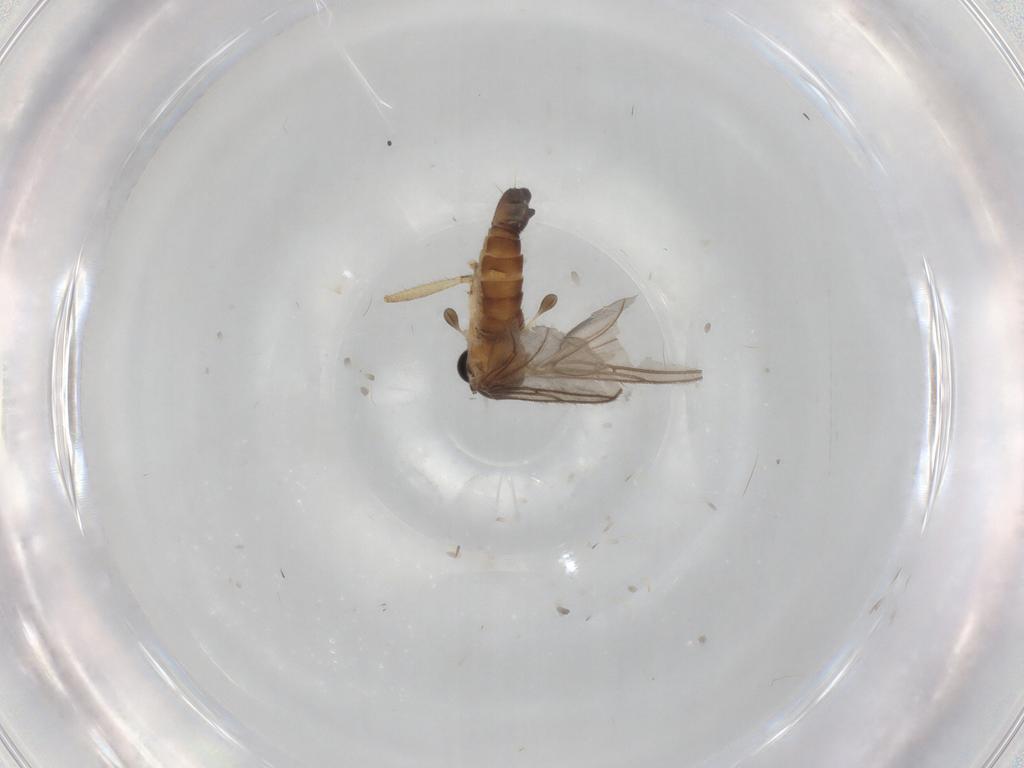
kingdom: Animalia
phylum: Arthropoda
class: Insecta
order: Diptera
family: Sciaridae
